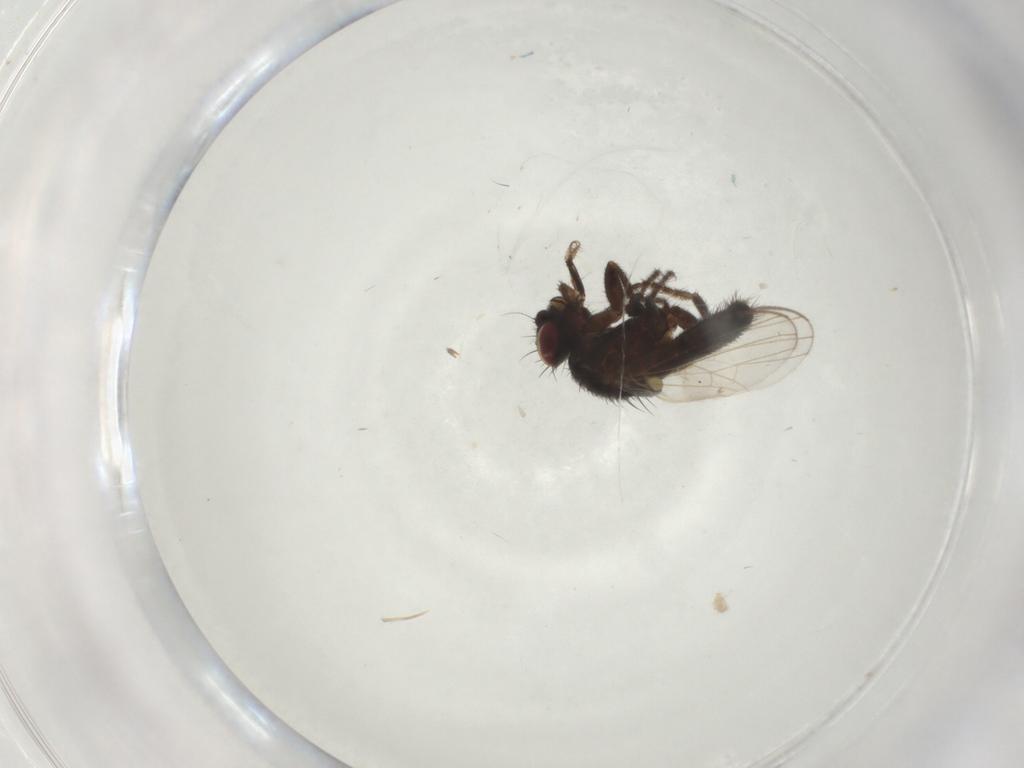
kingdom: Animalia
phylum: Arthropoda
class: Insecta
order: Diptera
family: Milichiidae
